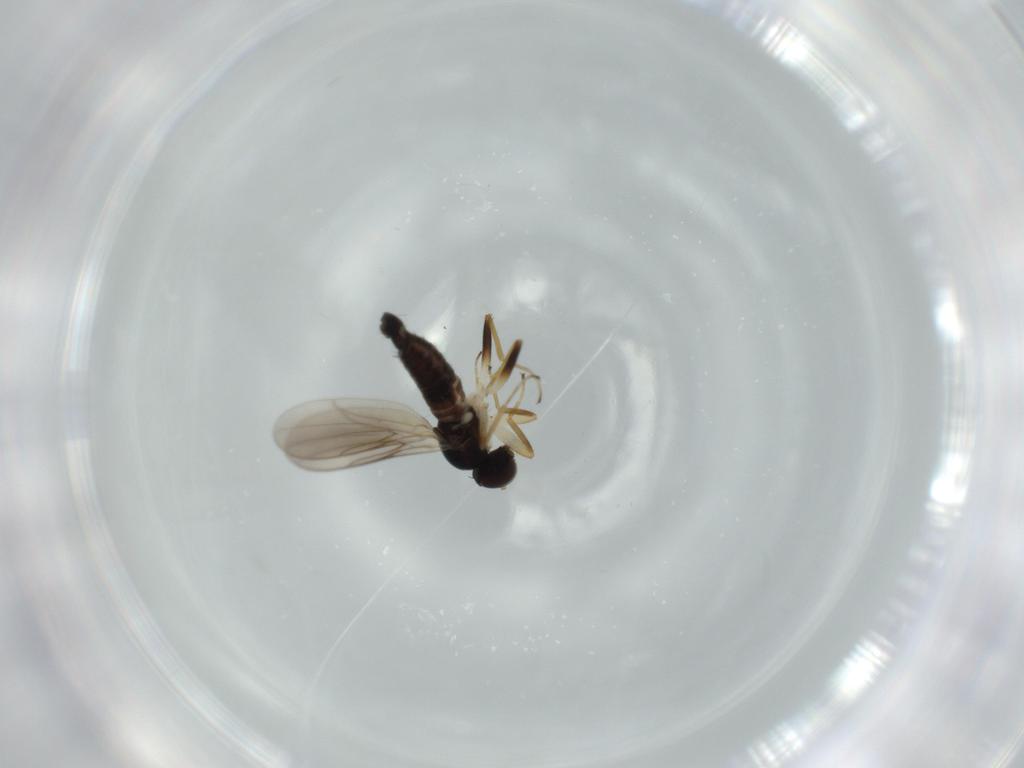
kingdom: Animalia
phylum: Arthropoda
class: Insecta
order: Diptera
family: Hybotidae
